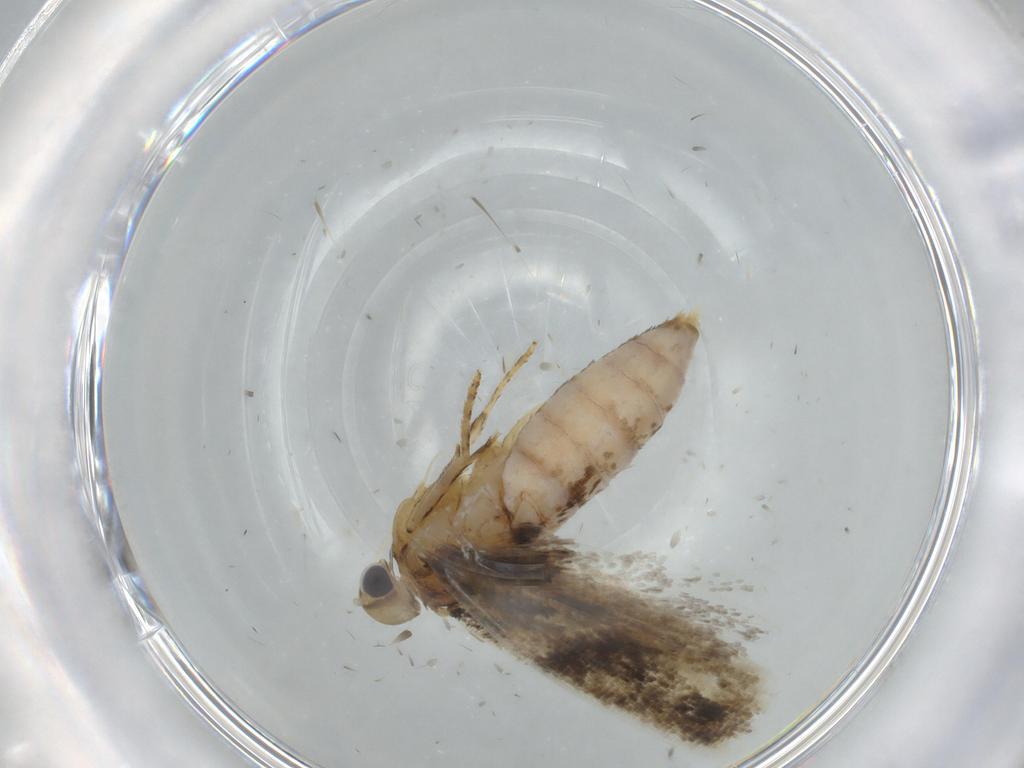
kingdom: Animalia
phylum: Arthropoda
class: Insecta
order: Lepidoptera
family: Gelechiidae
